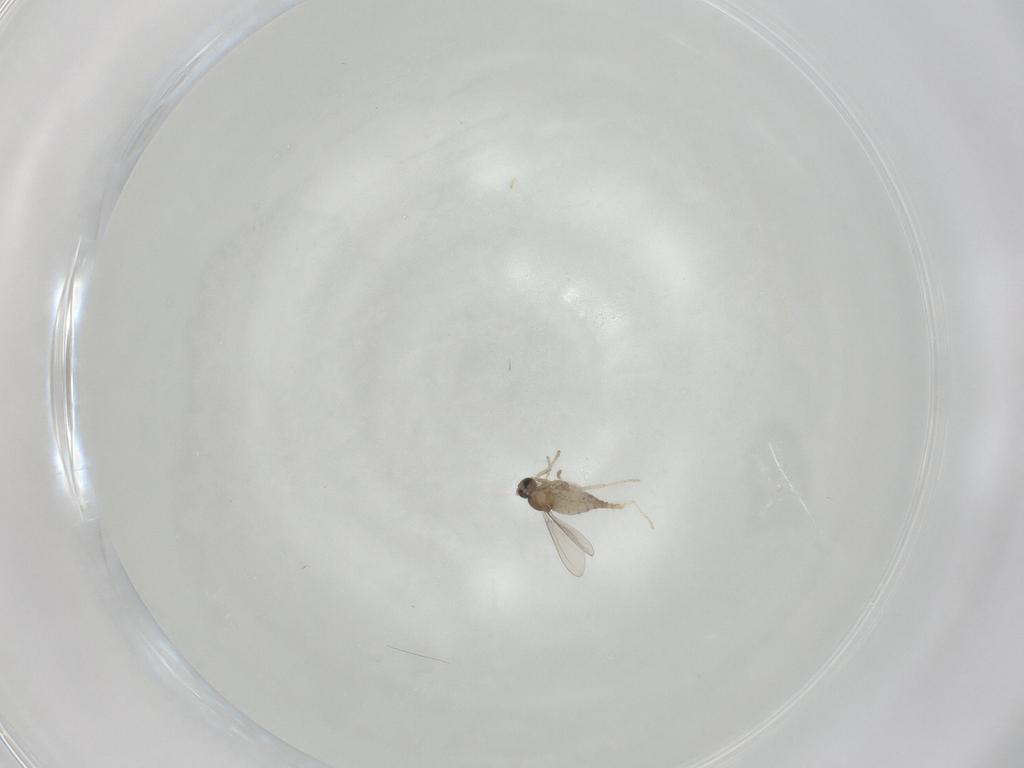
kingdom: Animalia
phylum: Arthropoda
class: Insecta
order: Diptera
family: Cecidomyiidae
